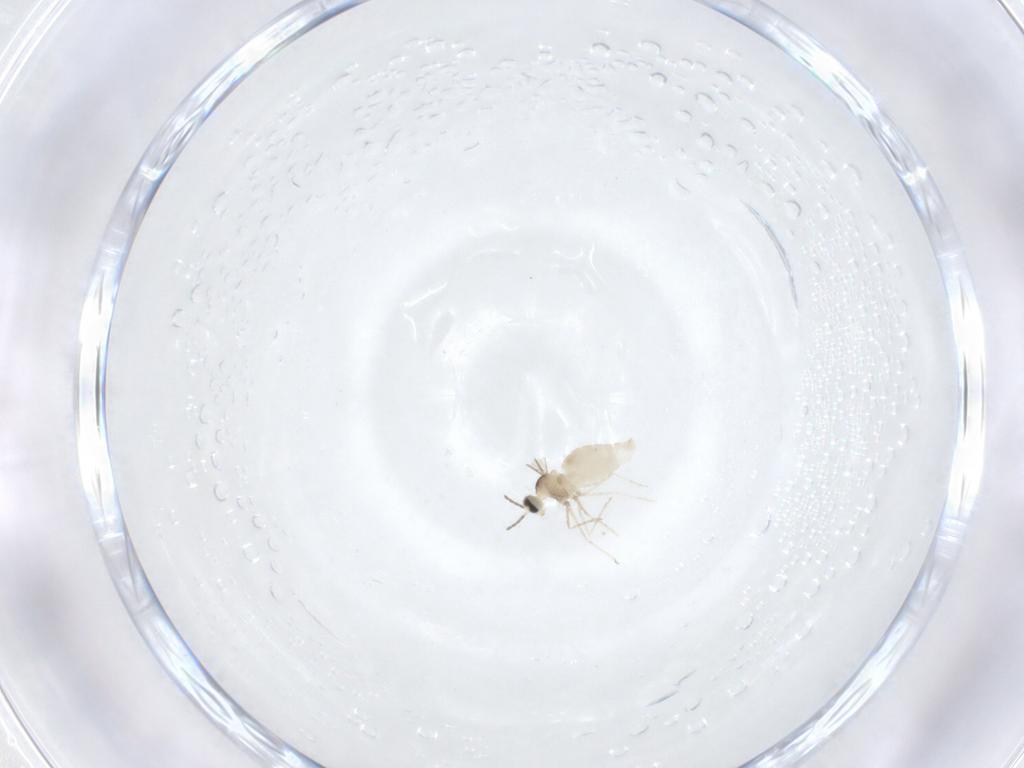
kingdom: Animalia
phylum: Arthropoda
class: Insecta
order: Diptera
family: Cecidomyiidae
